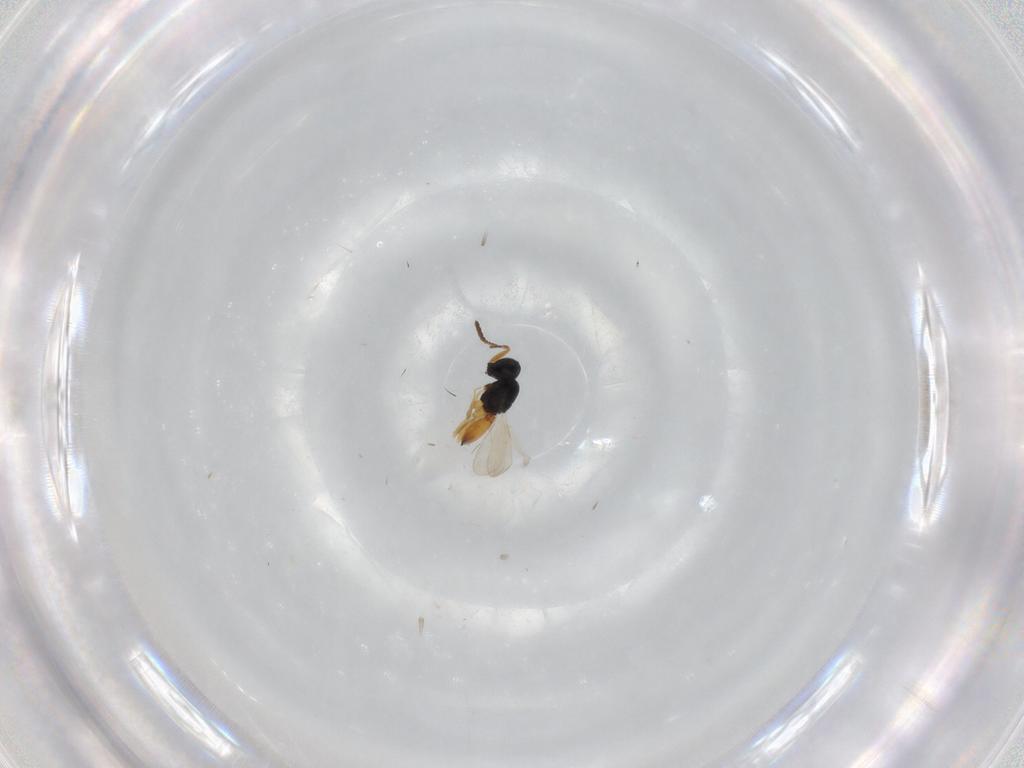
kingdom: Animalia
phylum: Arthropoda
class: Insecta
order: Hymenoptera
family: Scelionidae
